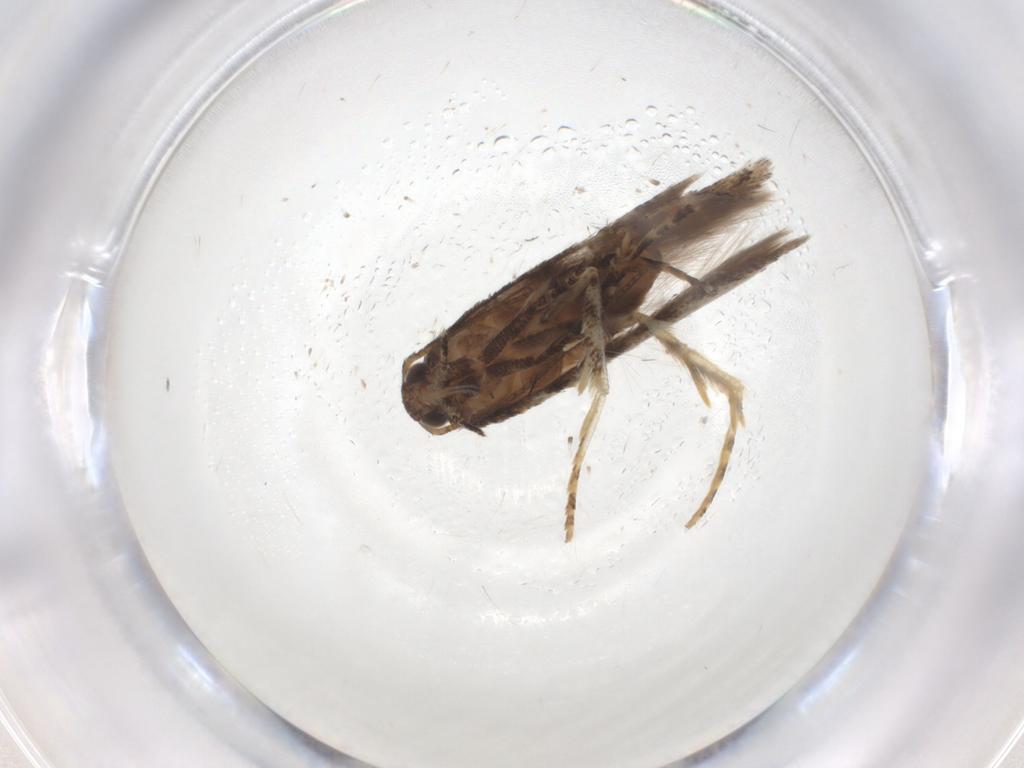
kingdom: Animalia
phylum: Arthropoda
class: Insecta
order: Lepidoptera
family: Gelechiidae
